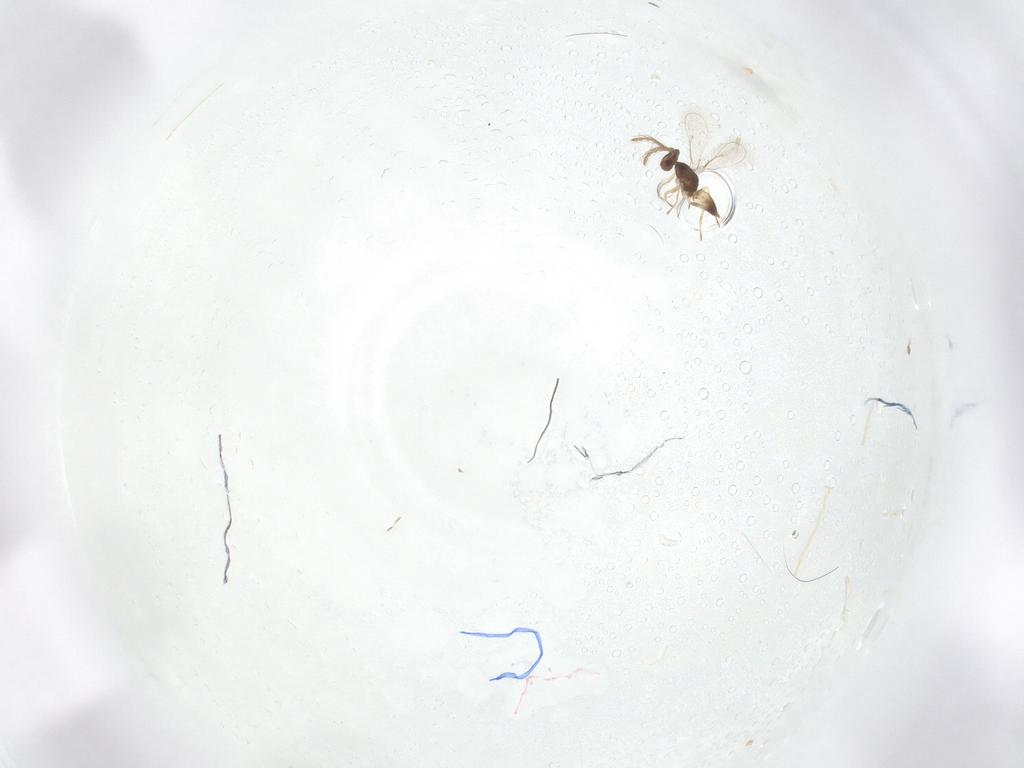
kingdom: Animalia
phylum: Arthropoda
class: Insecta
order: Hymenoptera
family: Eulophidae
